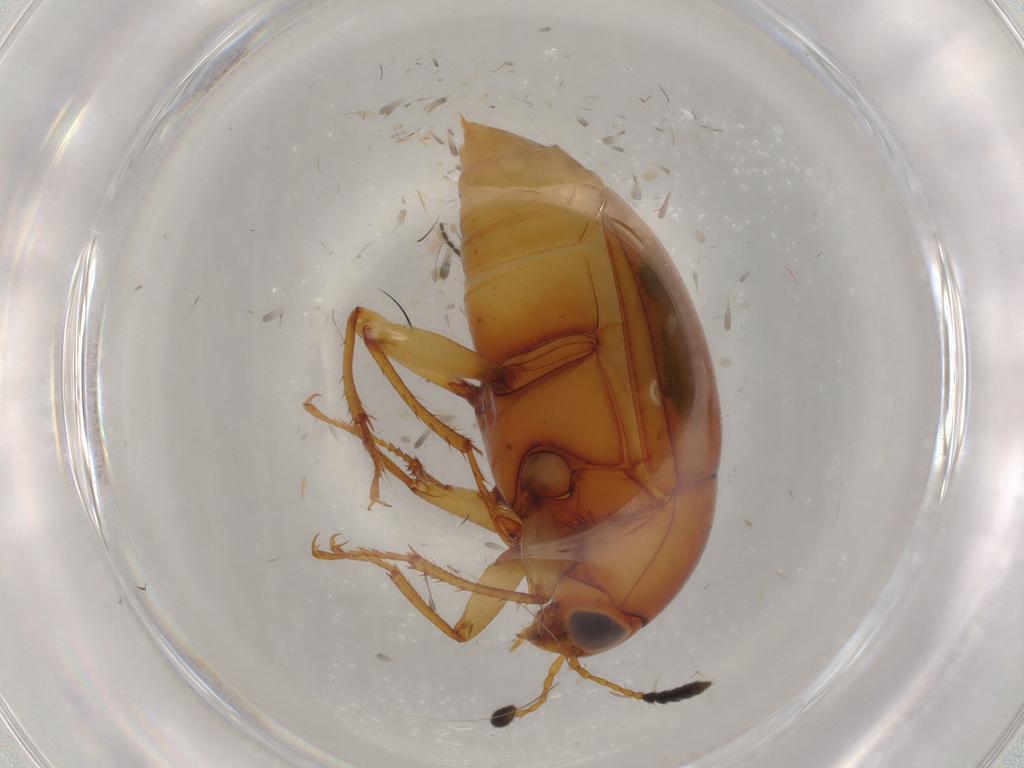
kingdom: Animalia
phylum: Arthropoda
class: Insecta
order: Coleoptera
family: Staphylinidae
